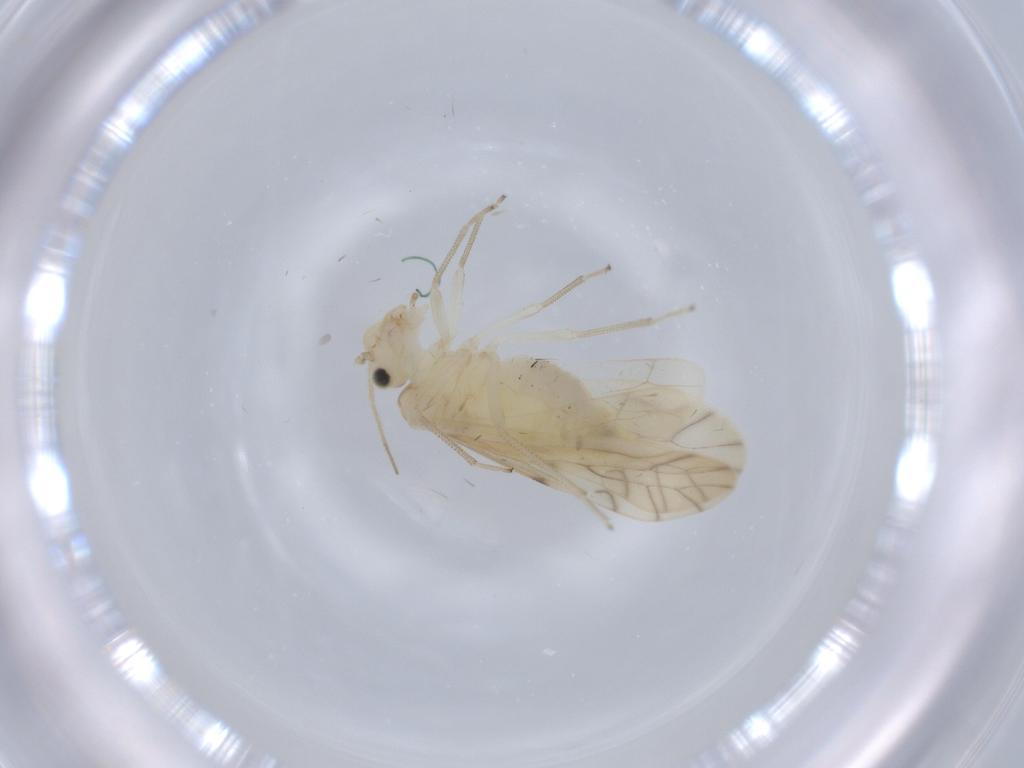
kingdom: Animalia
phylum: Arthropoda
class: Insecta
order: Psocodea
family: Caeciliusidae
